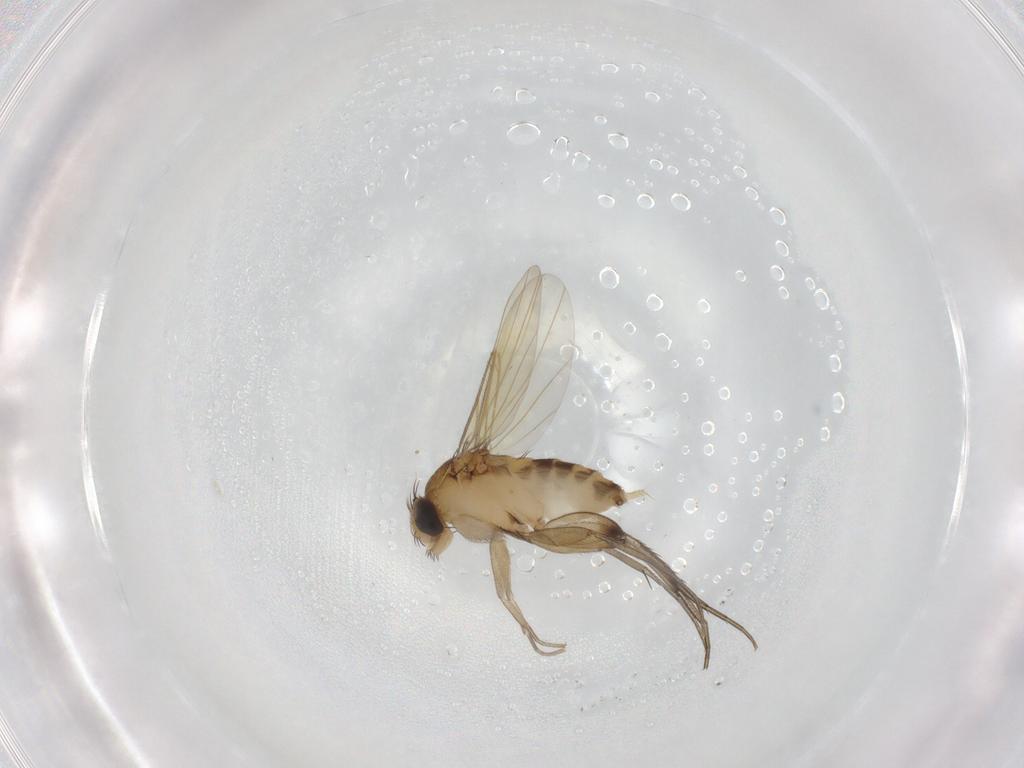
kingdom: Animalia
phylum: Arthropoda
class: Insecta
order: Diptera
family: Phoridae
